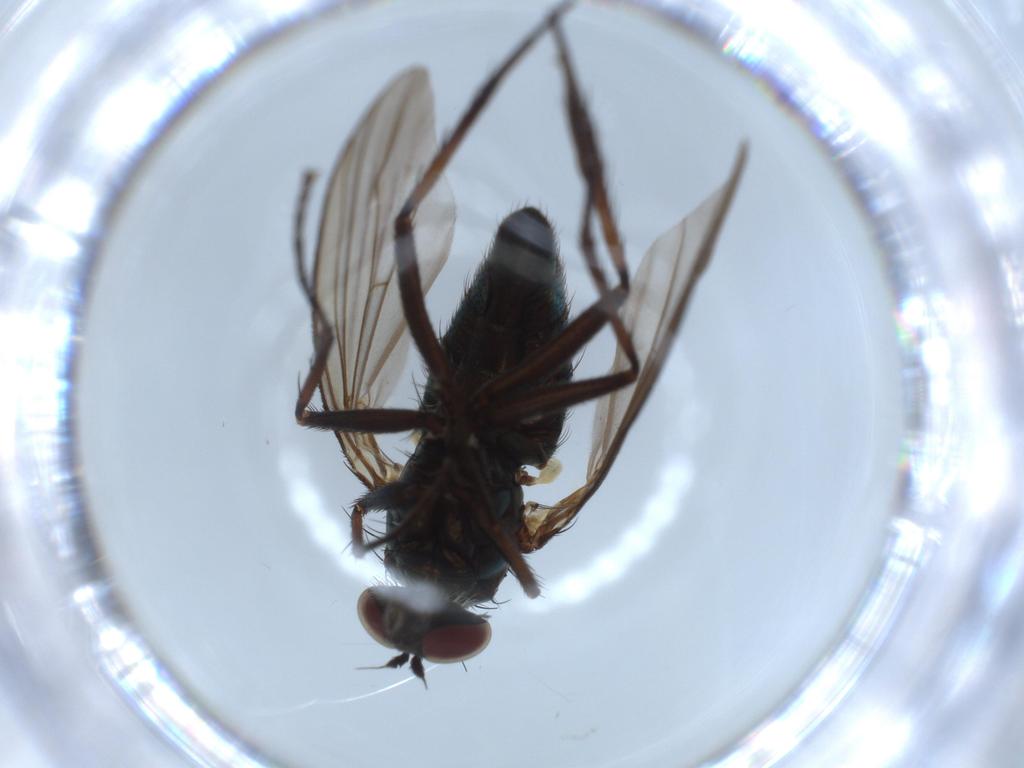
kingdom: Animalia
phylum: Arthropoda
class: Insecta
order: Diptera
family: Dolichopodidae
